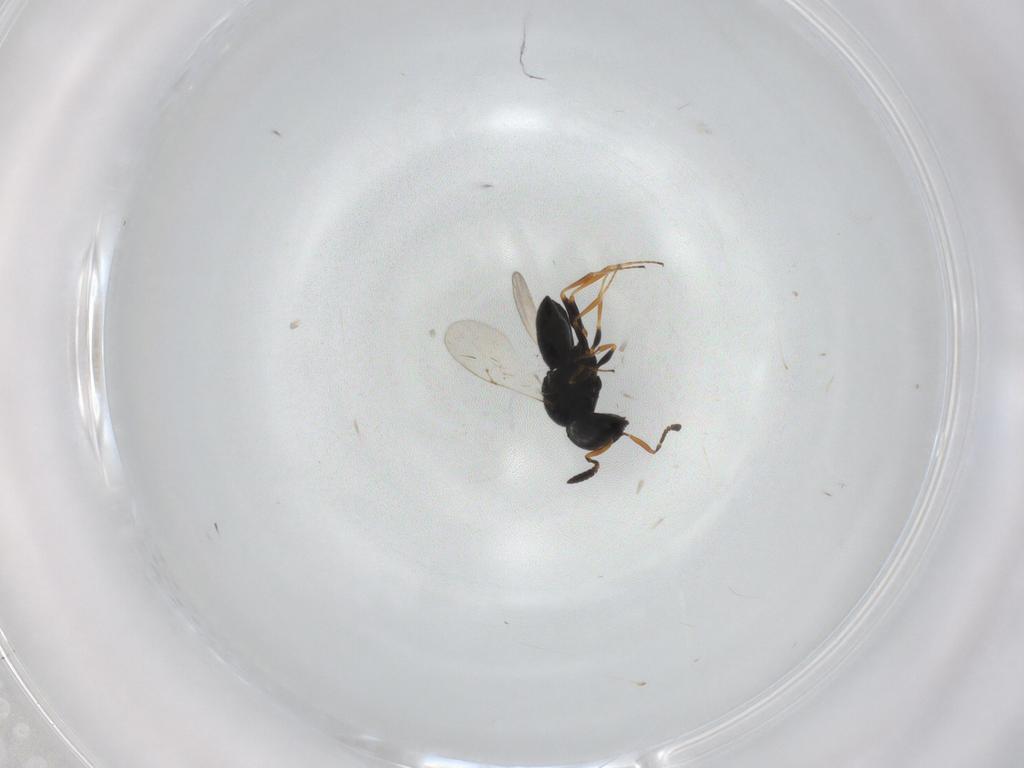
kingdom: Animalia
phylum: Arthropoda
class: Insecta
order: Coleoptera
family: Curculionidae
